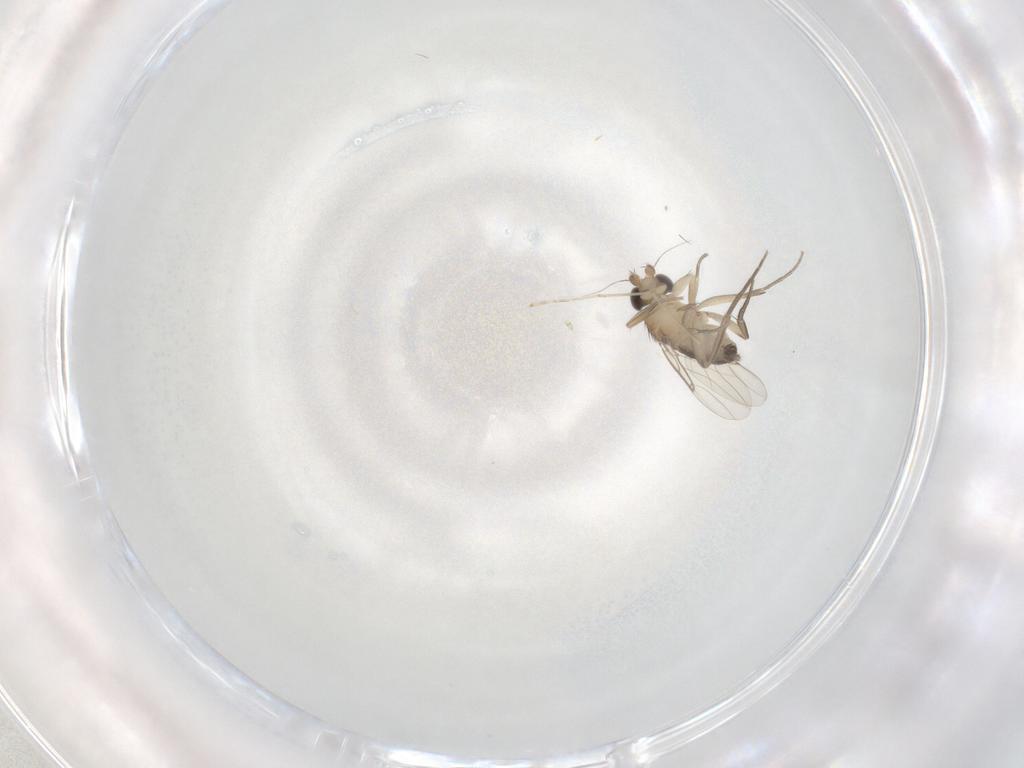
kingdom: Animalia
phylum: Arthropoda
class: Insecta
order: Diptera
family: Phoridae
